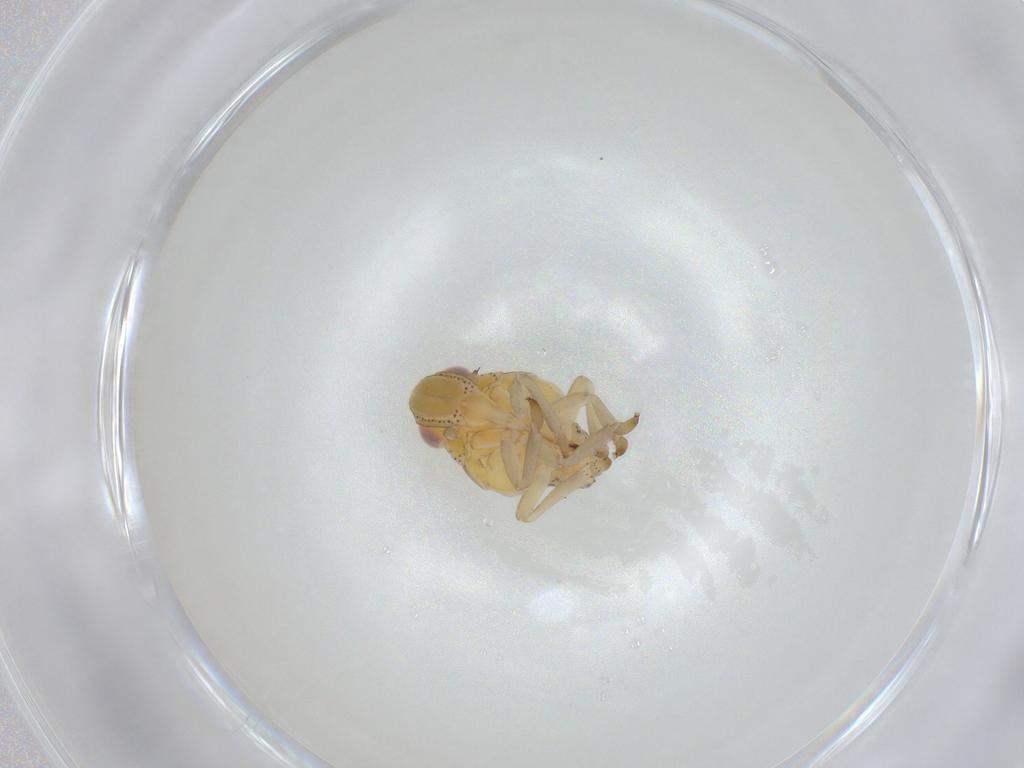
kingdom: Animalia
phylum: Arthropoda
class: Insecta
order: Hemiptera
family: Tropiduchidae
